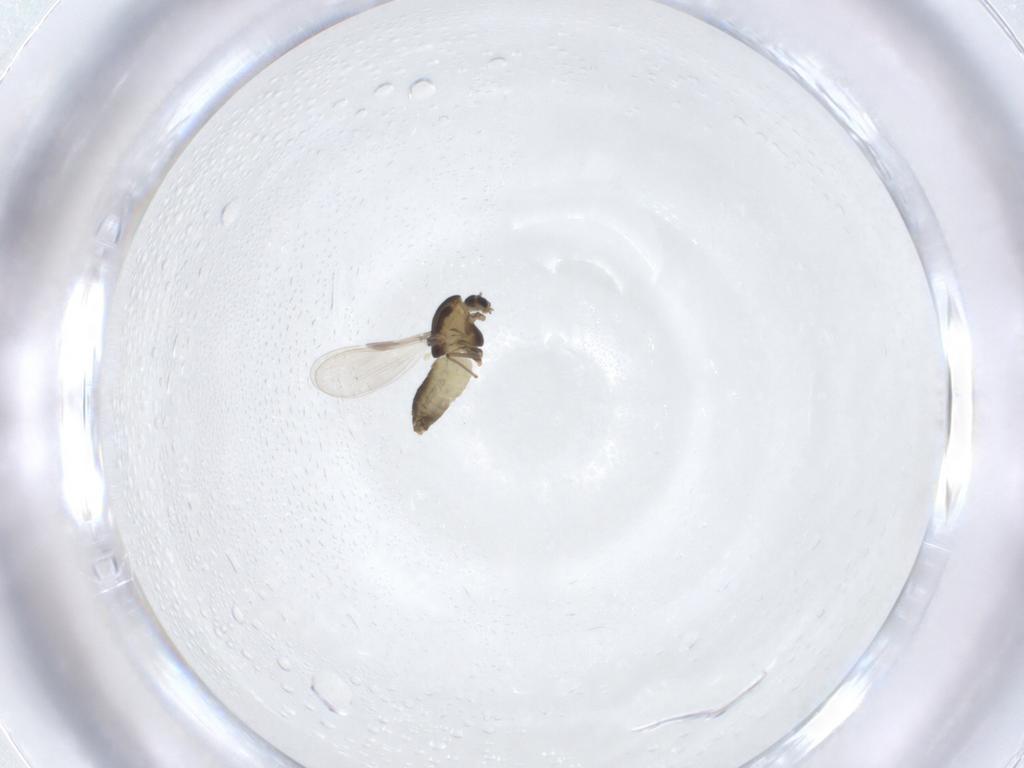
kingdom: Animalia
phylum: Arthropoda
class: Insecta
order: Diptera
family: Chironomidae
